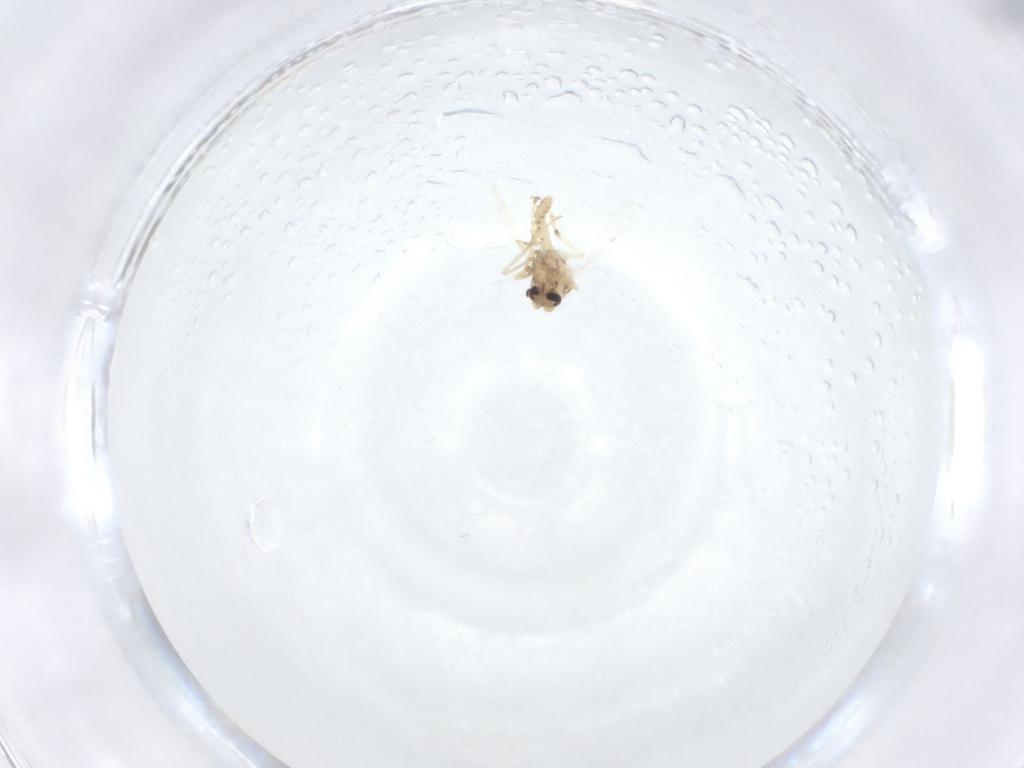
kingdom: Animalia
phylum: Arthropoda
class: Insecta
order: Diptera
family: Ceratopogonidae
